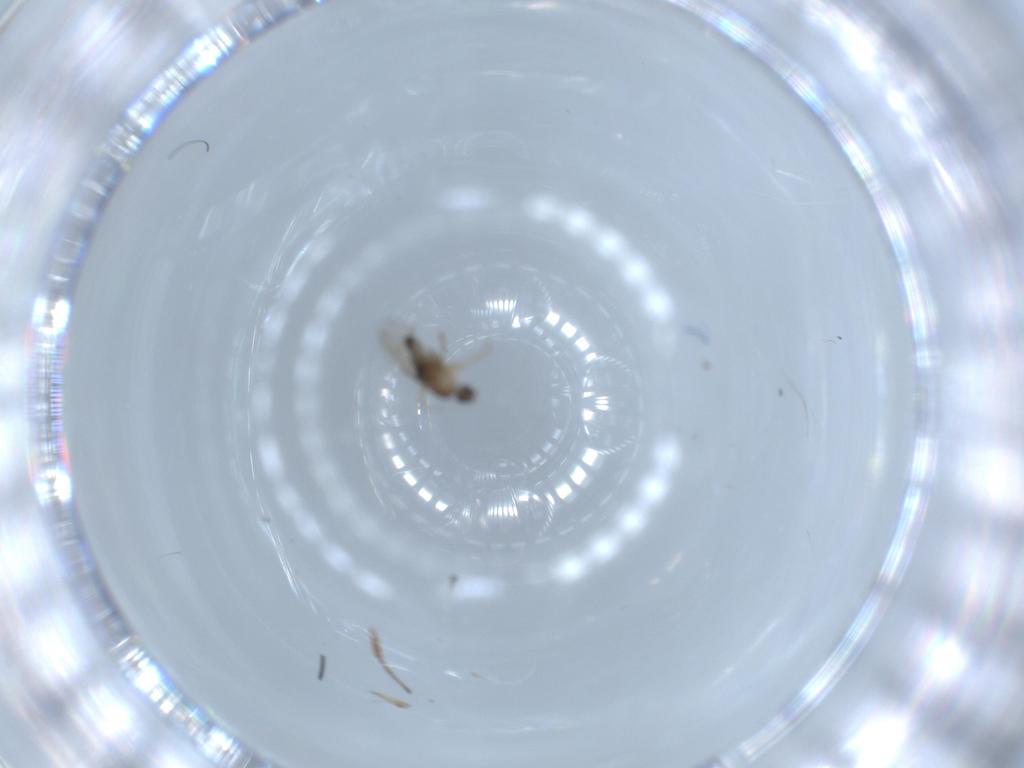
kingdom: Animalia
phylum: Arthropoda
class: Insecta
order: Diptera
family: Phoridae
